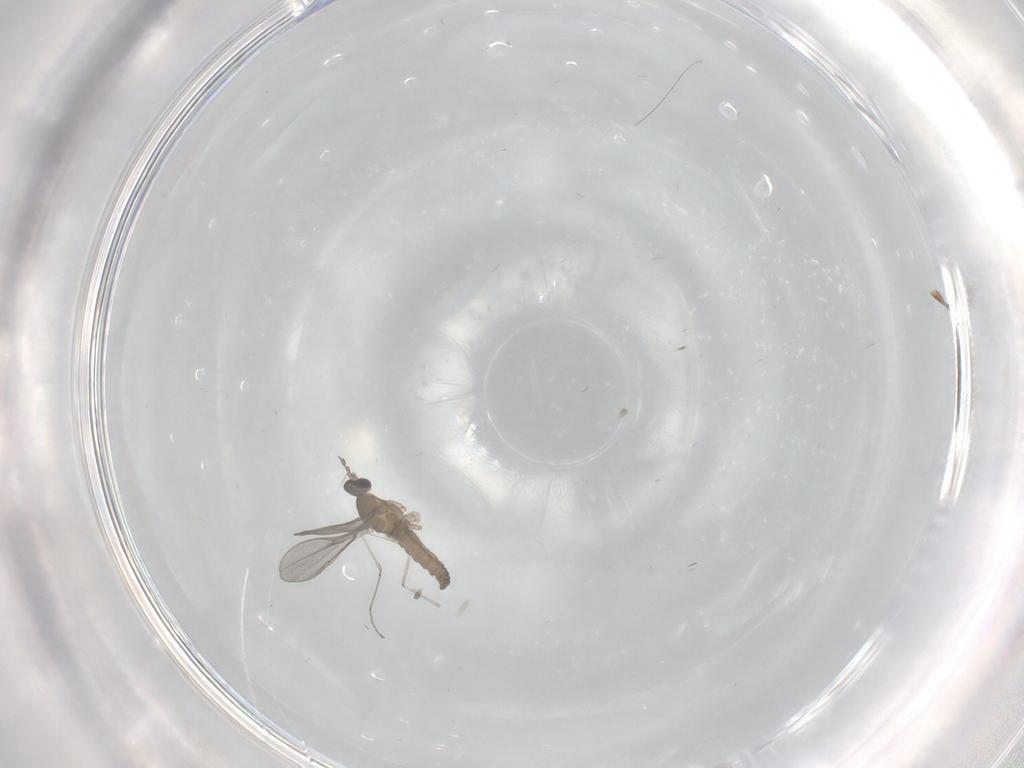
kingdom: Animalia
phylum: Arthropoda
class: Insecta
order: Diptera
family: Cecidomyiidae
